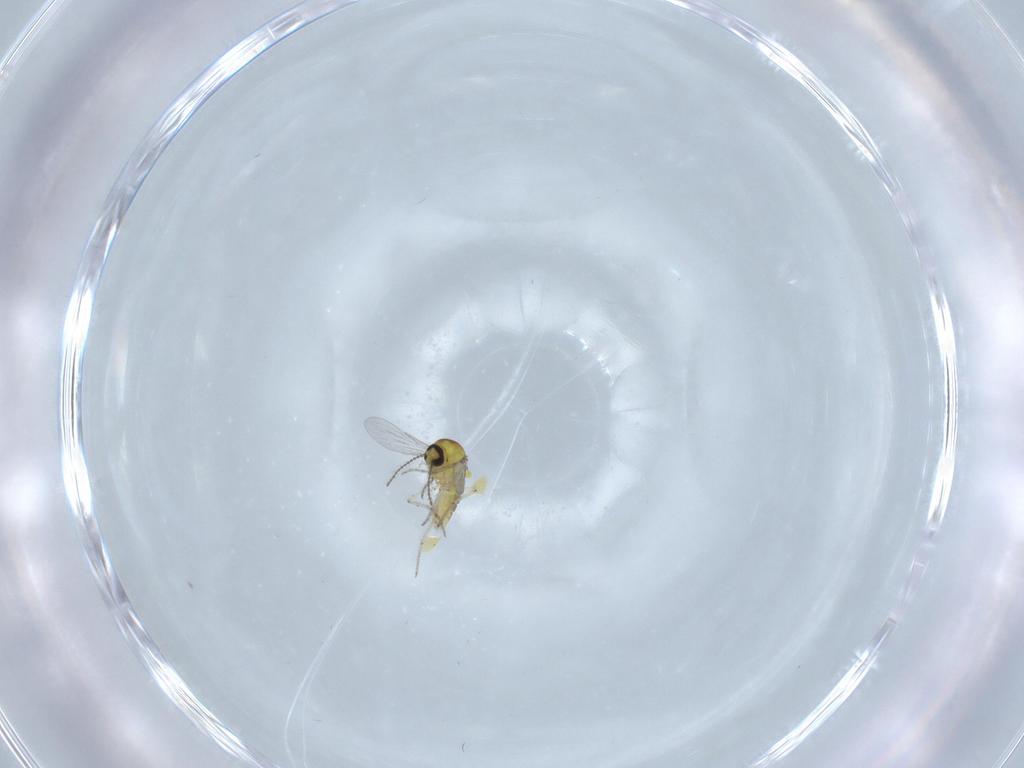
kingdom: Animalia
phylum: Arthropoda
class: Insecta
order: Diptera
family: Ceratopogonidae
